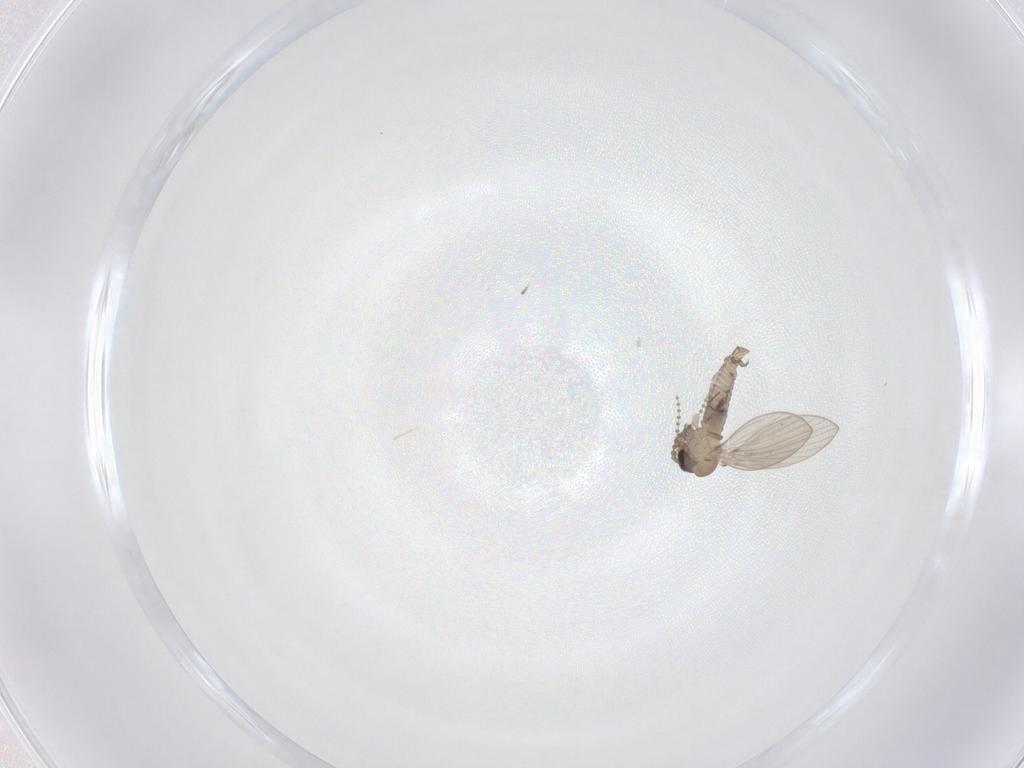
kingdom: Animalia
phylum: Arthropoda
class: Insecta
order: Diptera
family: Psychodidae
